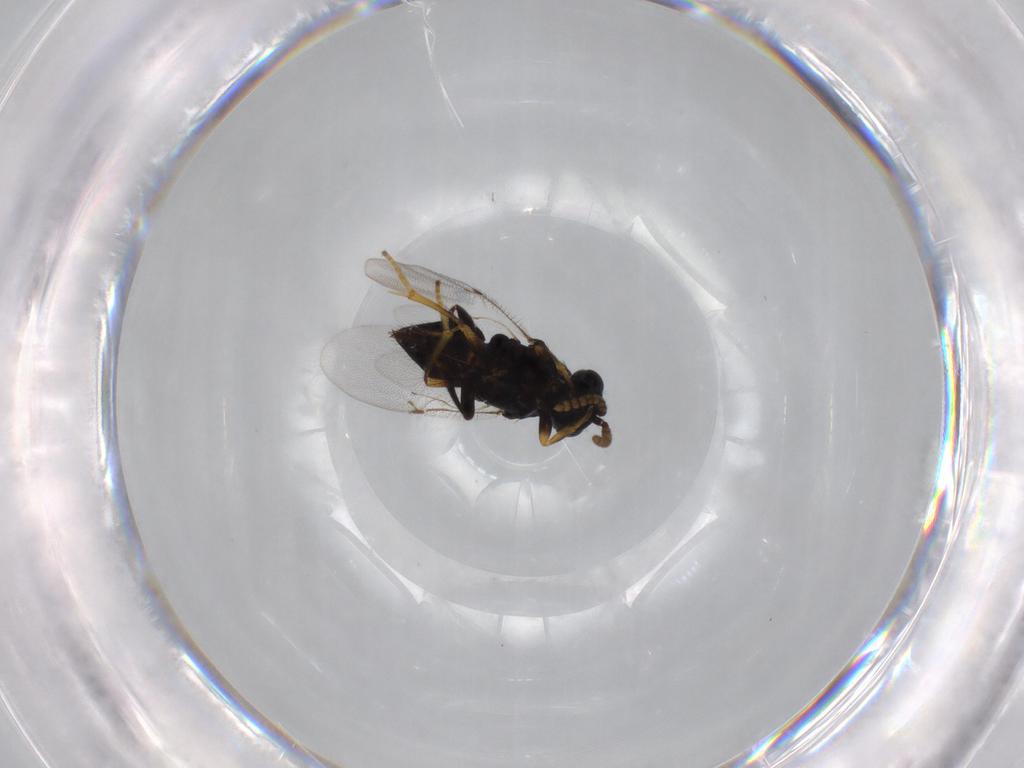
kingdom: Animalia
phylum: Arthropoda
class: Insecta
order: Hymenoptera
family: Encyrtidae
